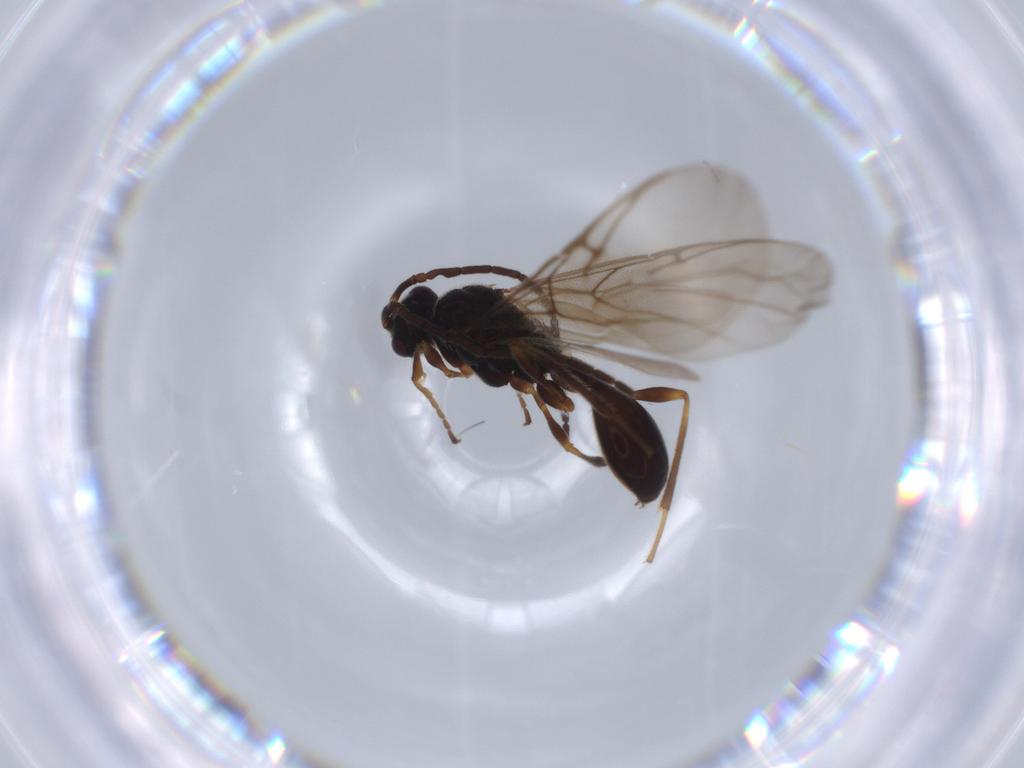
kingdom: Animalia
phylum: Arthropoda
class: Insecta
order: Hymenoptera
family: Diapriidae
